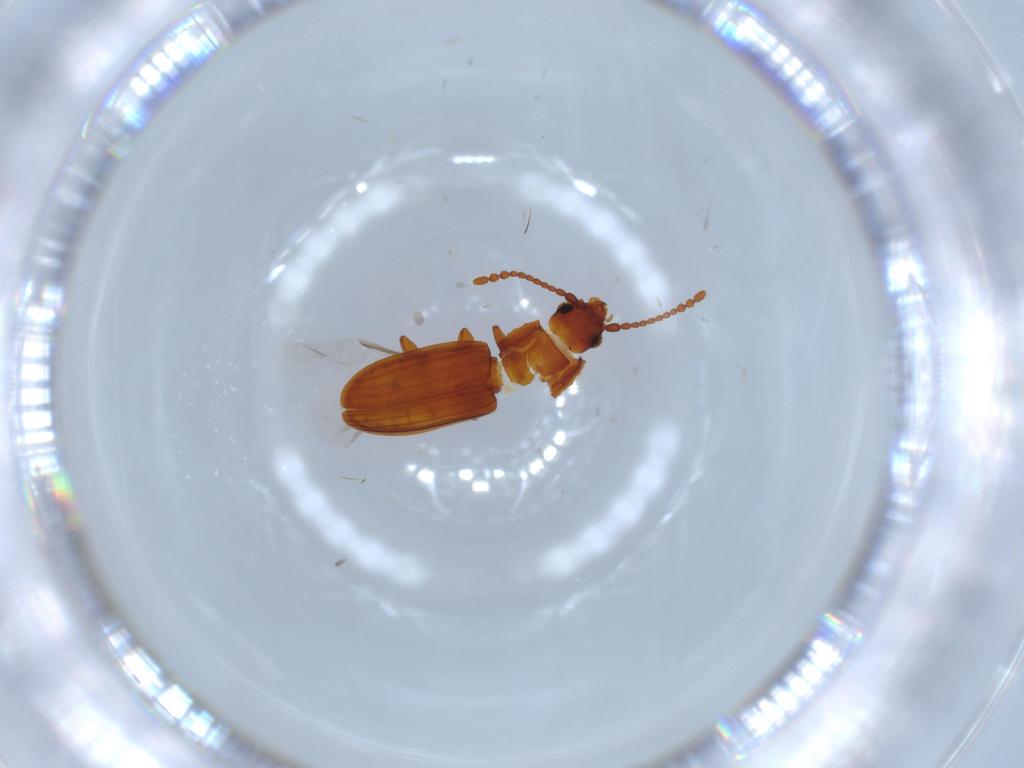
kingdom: Animalia
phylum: Arthropoda
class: Insecta
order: Coleoptera
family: Laemophloeidae
